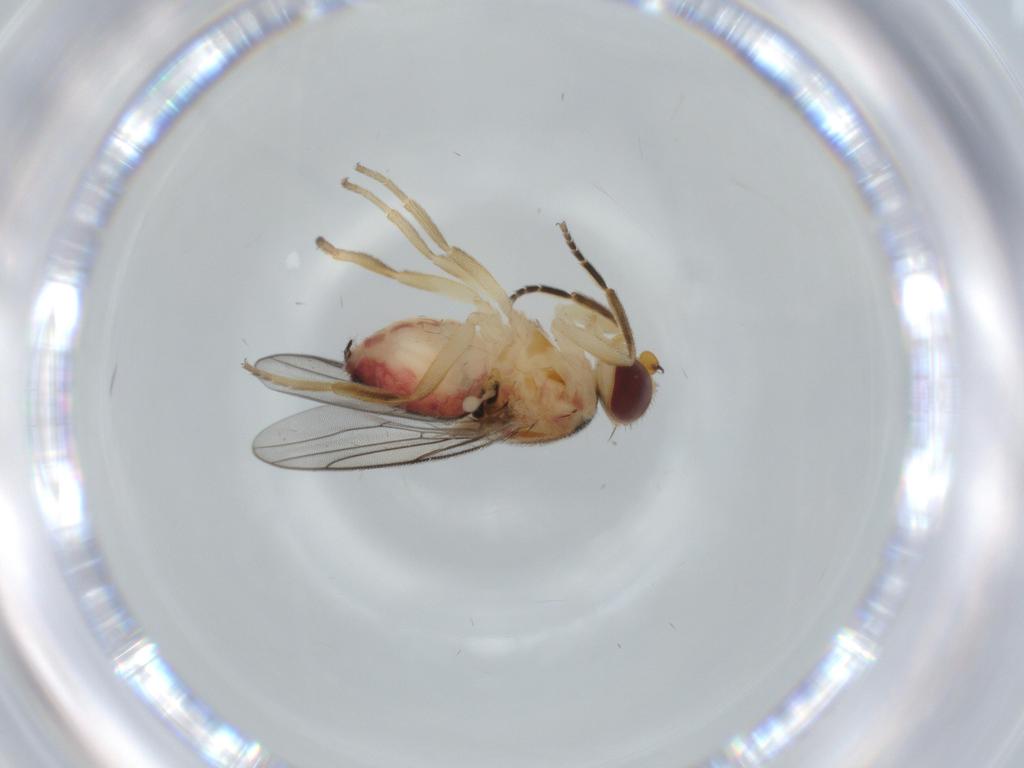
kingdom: Animalia
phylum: Arthropoda
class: Insecta
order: Diptera
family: Chloropidae
